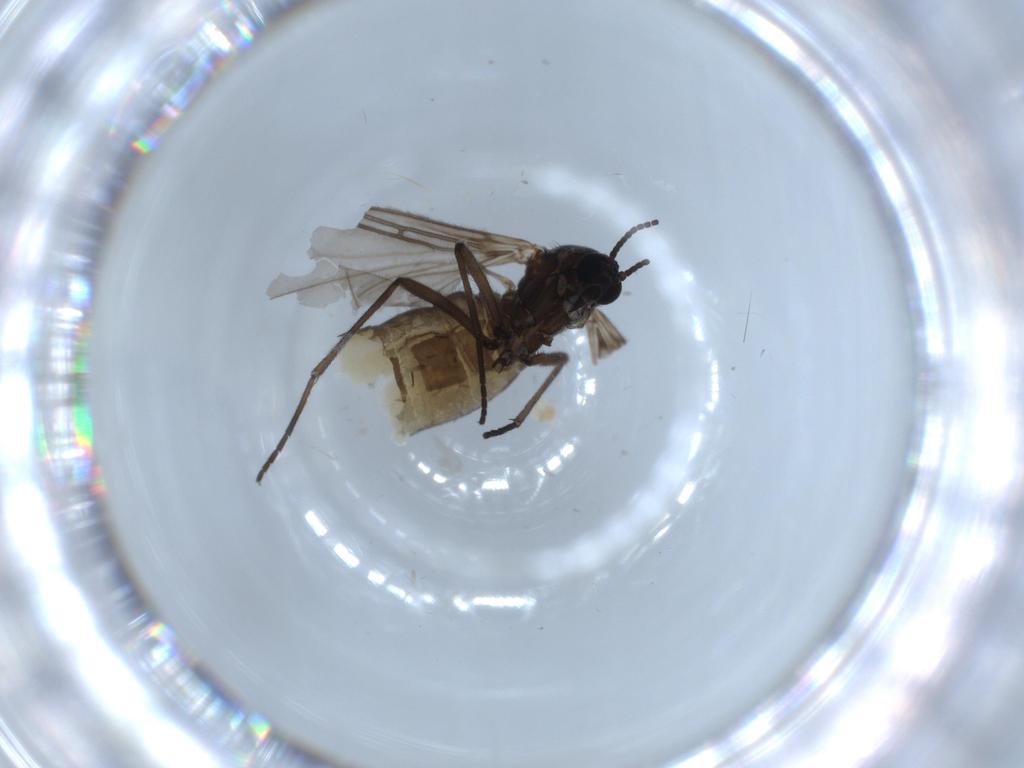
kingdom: Animalia
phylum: Arthropoda
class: Insecta
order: Diptera
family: Sciaridae
